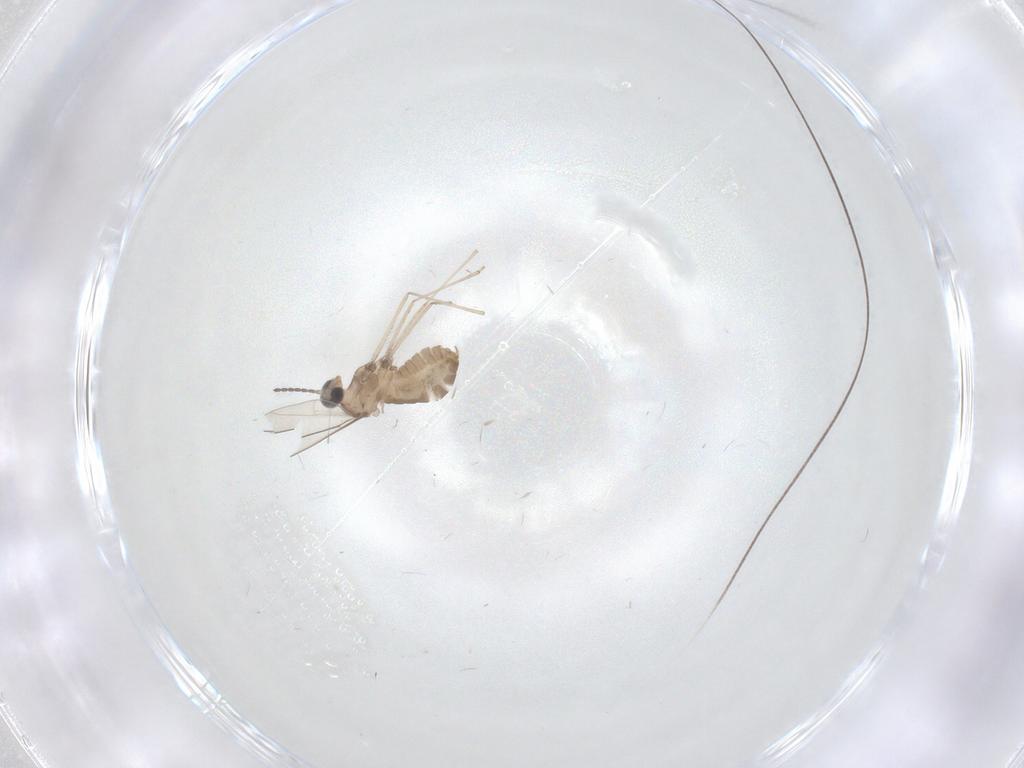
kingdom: Animalia
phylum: Arthropoda
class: Insecta
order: Diptera
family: Cecidomyiidae
